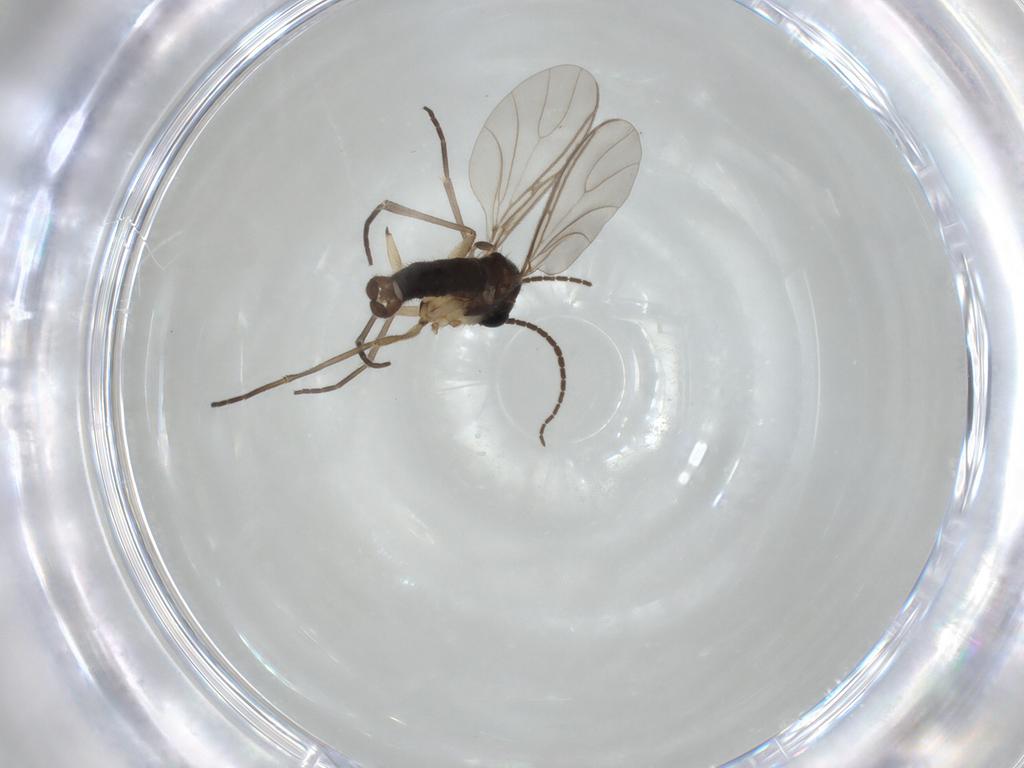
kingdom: Animalia
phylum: Arthropoda
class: Insecta
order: Diptera
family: Sciaridae
